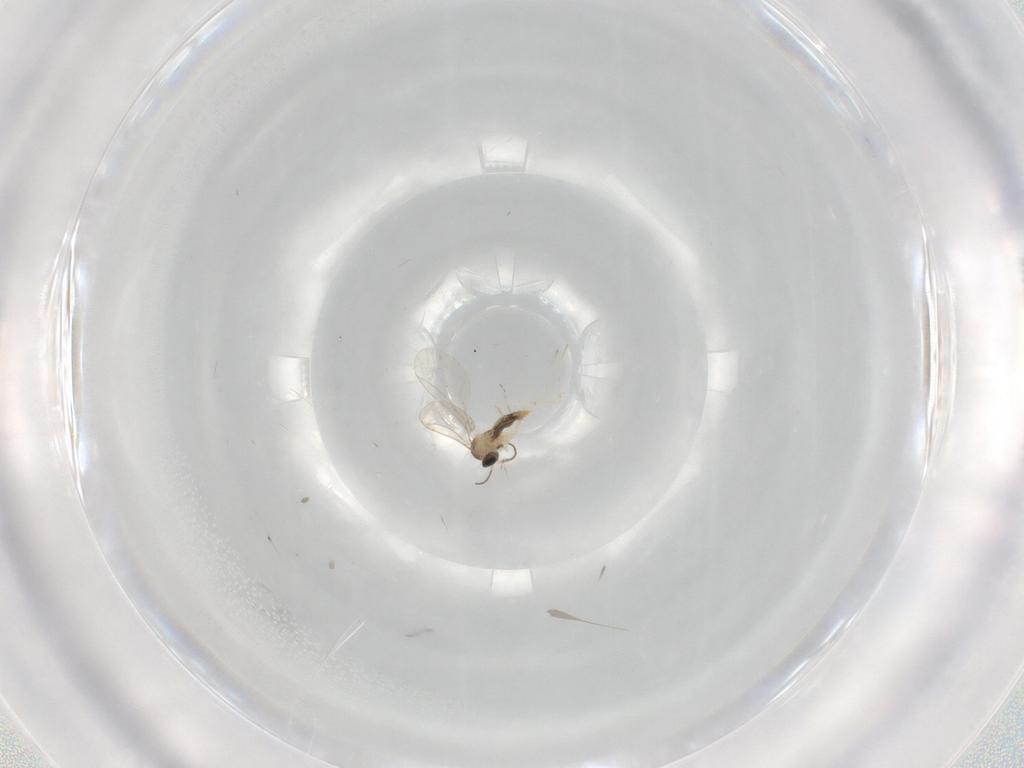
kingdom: Animalia
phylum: Arthropoda
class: Insecta
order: Diptera
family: Cecidomyiidae
